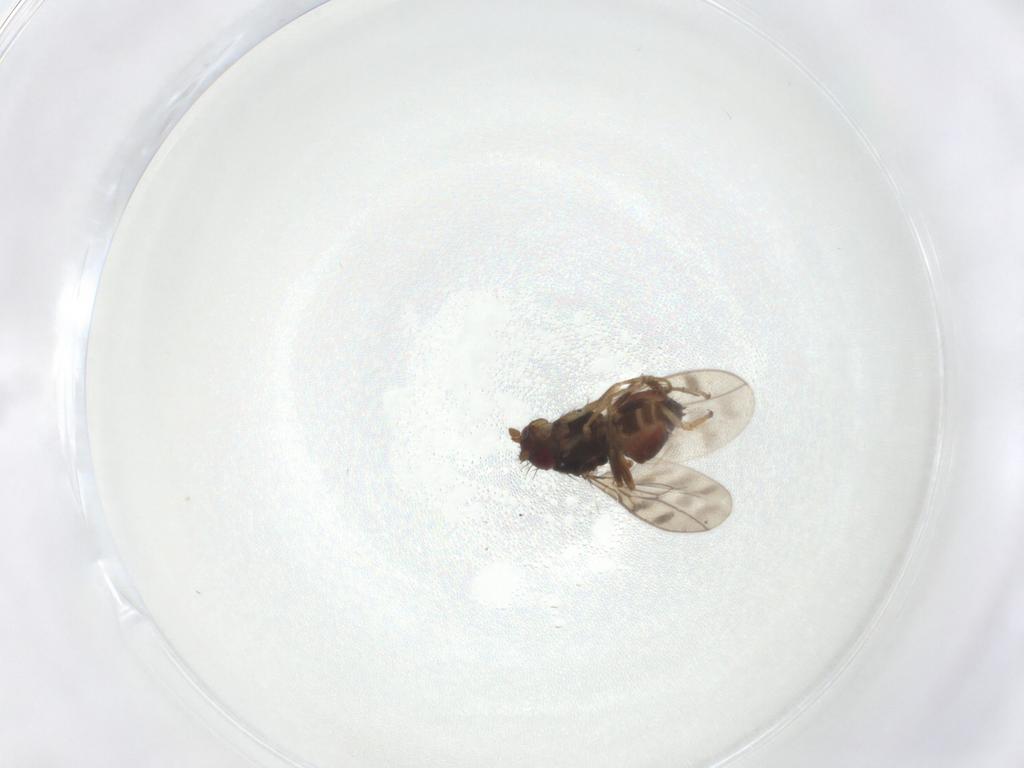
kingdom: Animalia
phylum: Arthropoda
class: Insecta
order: Diptera
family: Sphaeroceridae
